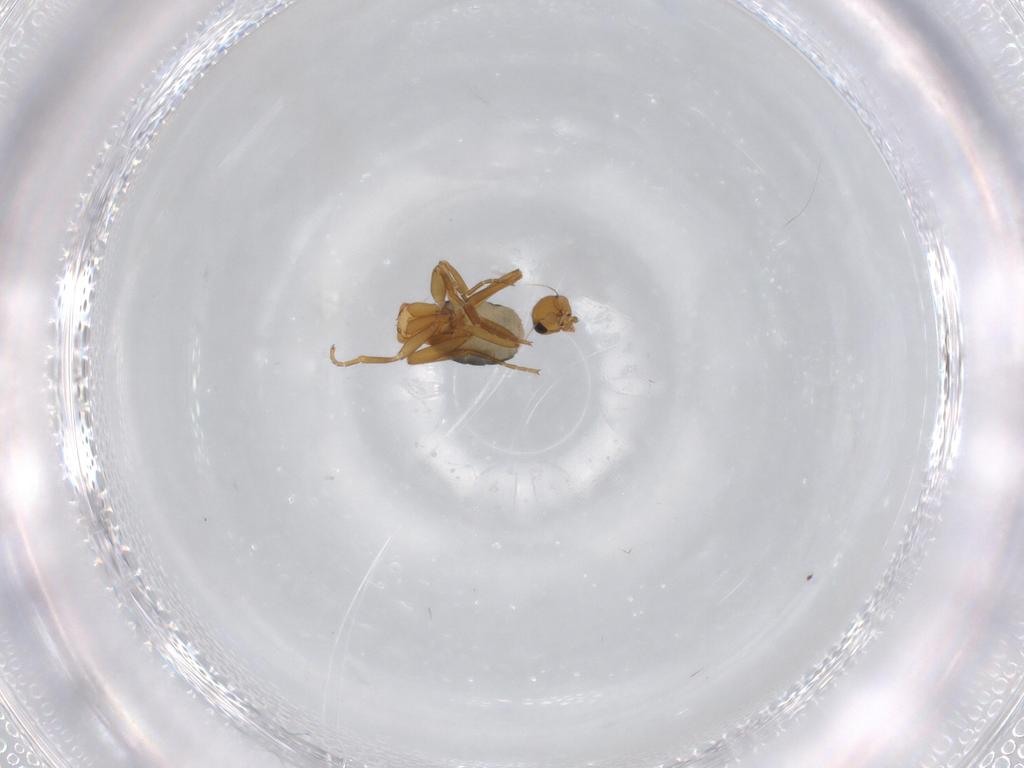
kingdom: Animalia
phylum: Arthropoda
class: Insecta
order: Diptera
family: Phoridae
